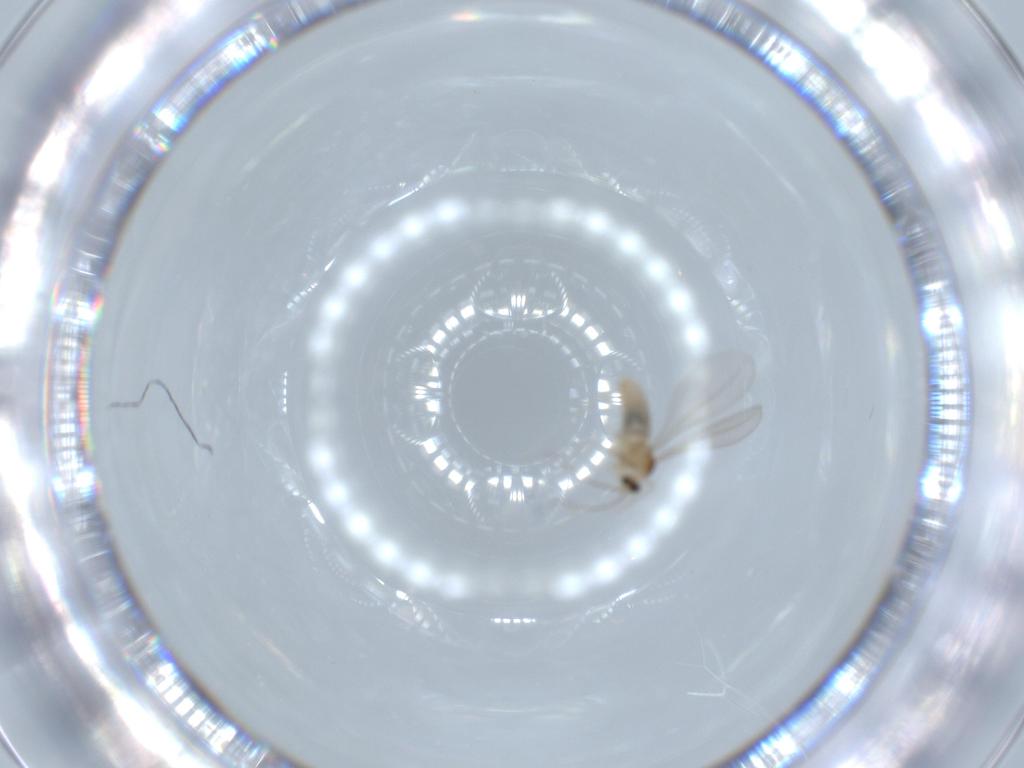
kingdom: Animalia
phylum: Arthropoda
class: Insecta
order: Diptera
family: Cecidomyiidae
